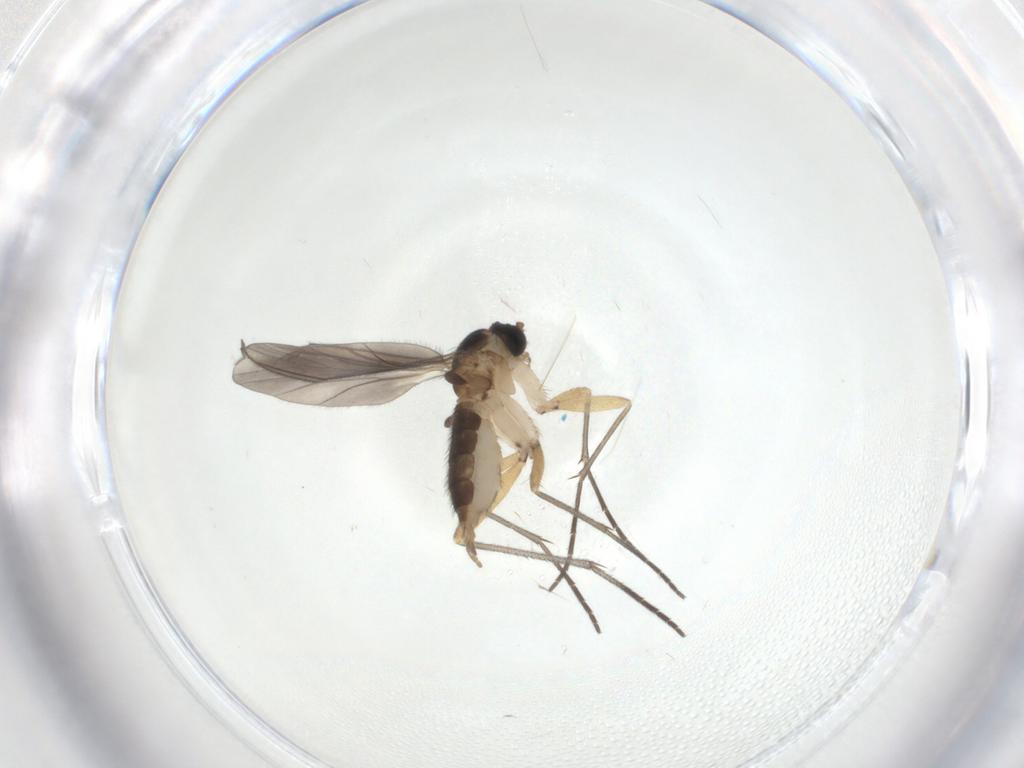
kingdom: Animalia
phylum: Arthropoda
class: Insecta
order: Diptera
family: Sciaridae
